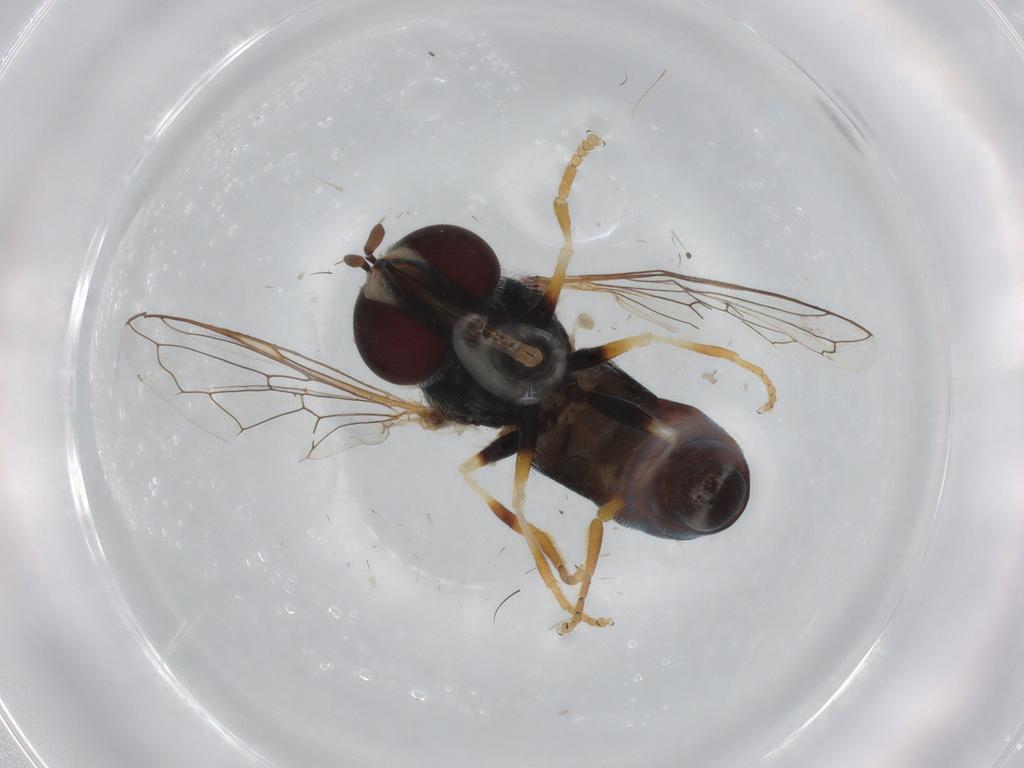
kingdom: Animalia
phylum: Arthropoda
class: Insecta
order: Diptera
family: Syrphidae
